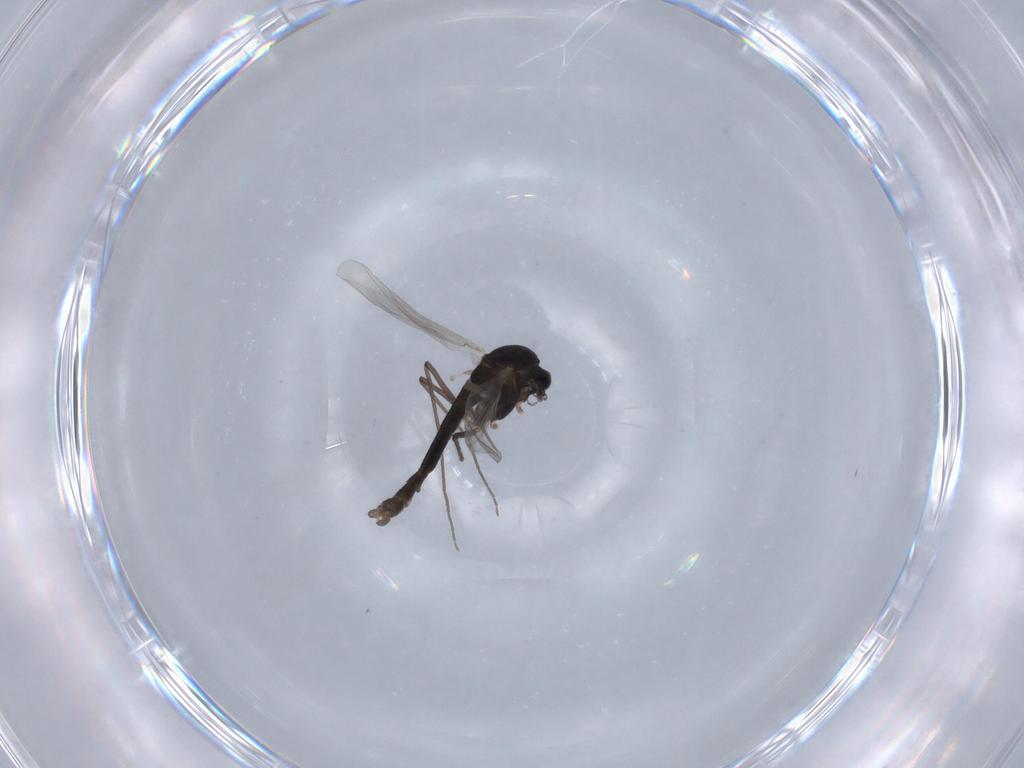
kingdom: Animalia
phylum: Arthropoda
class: Insecta
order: Diptera
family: Chironomidae
